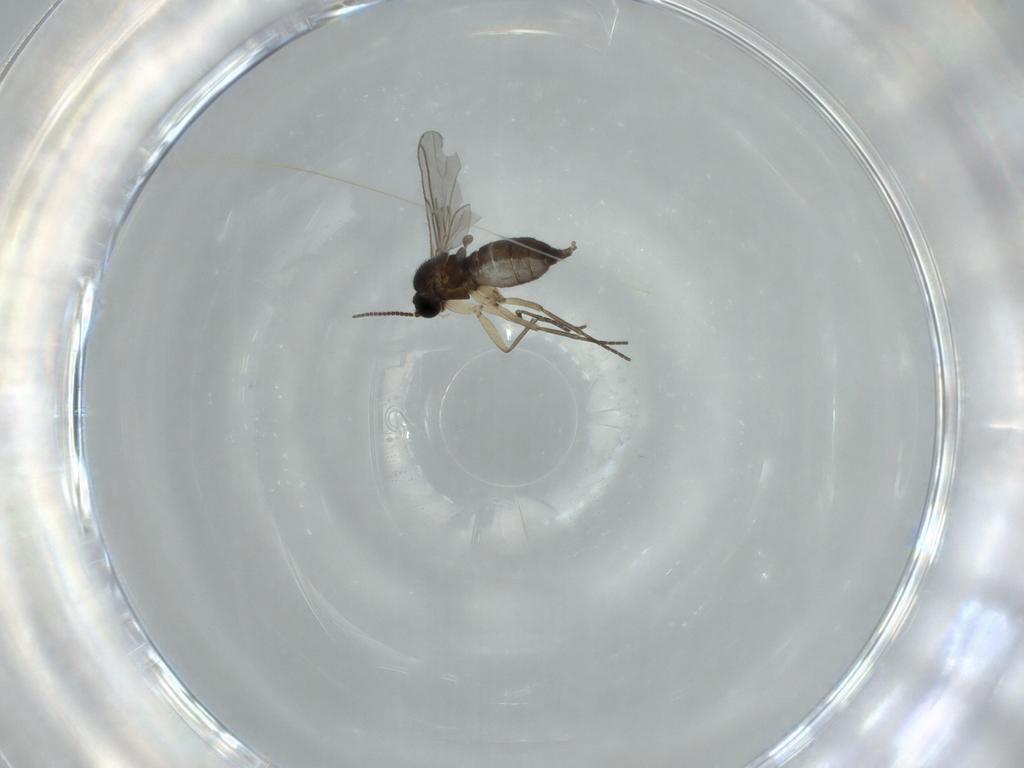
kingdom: Animalia
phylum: Arthropoda
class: Insecta
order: Diptera
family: Sciaridae
